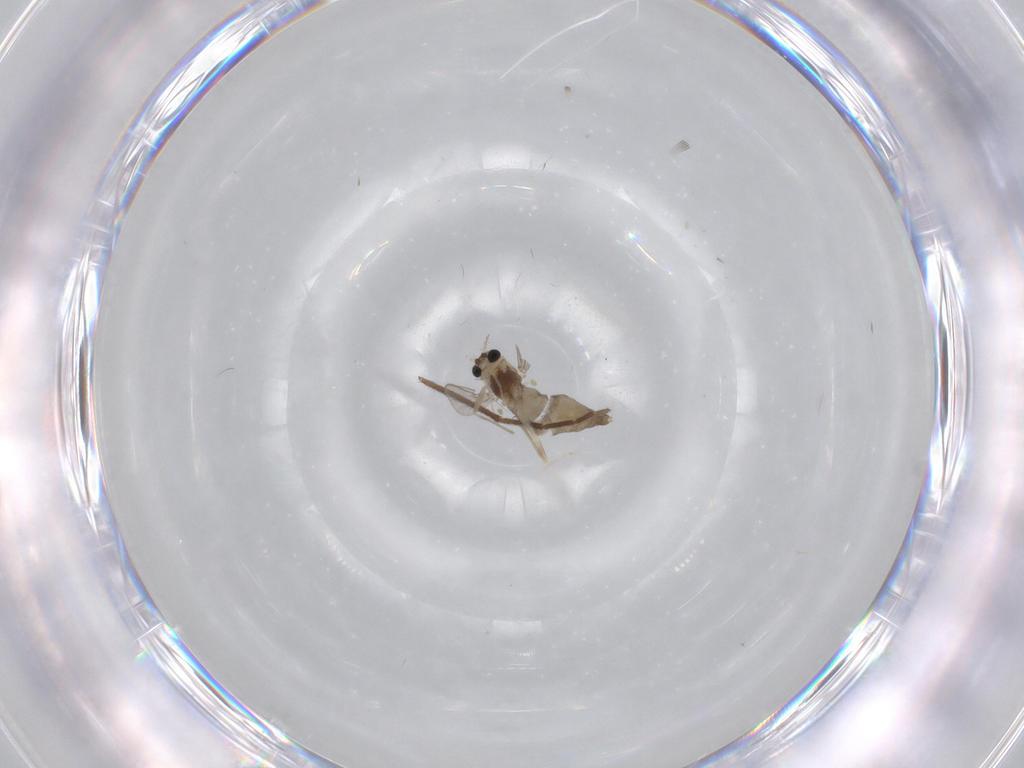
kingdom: Animalia
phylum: Arthropoda
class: Insecta
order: Diptera
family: Chironomidae
